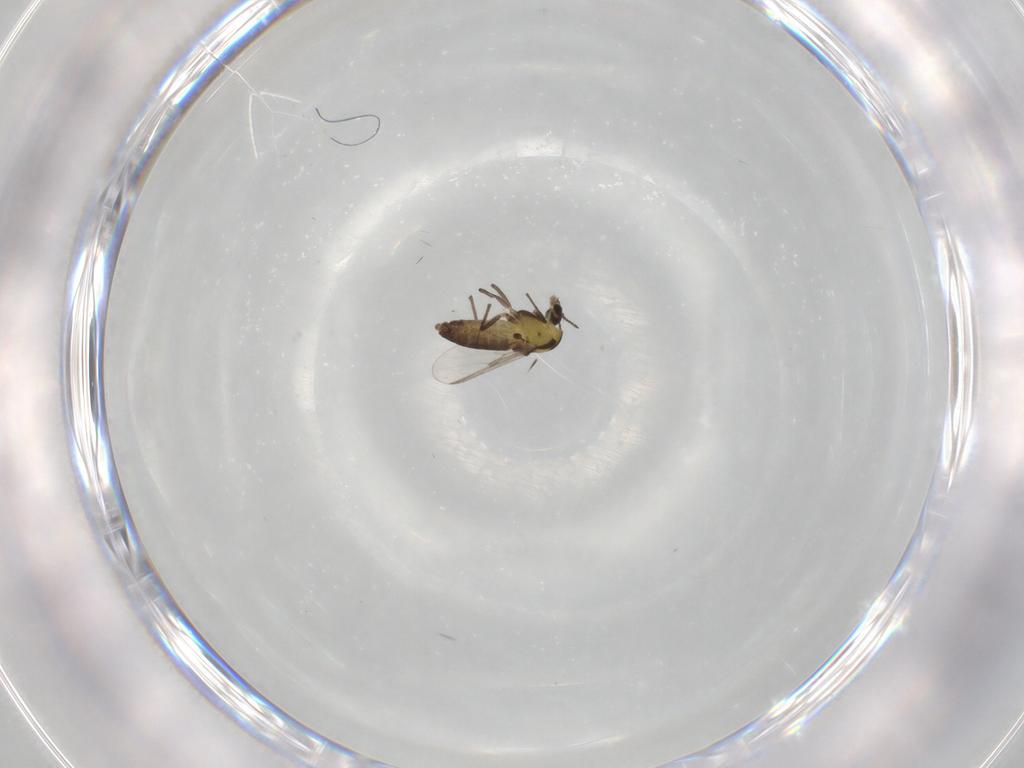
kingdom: Animalia
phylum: Arthropoda
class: Insecta
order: Diptera
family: Chironomidae
